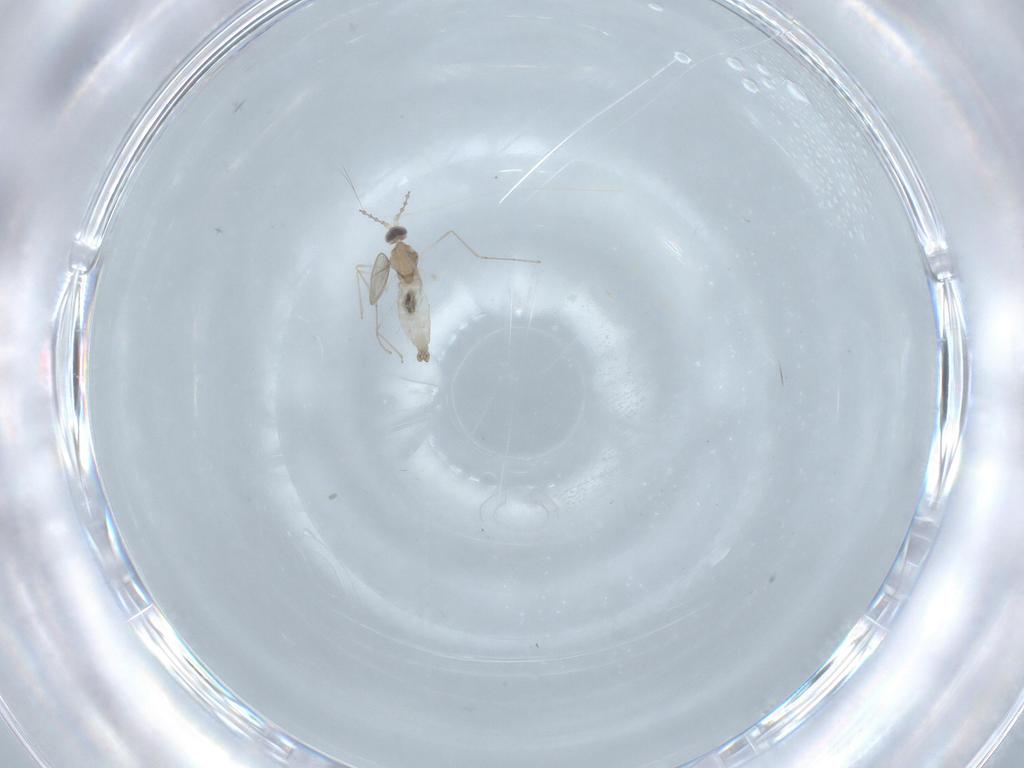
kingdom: Animalia
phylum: Arthropoda
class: Insecta
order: Diptera
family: Cecidomyiidae
